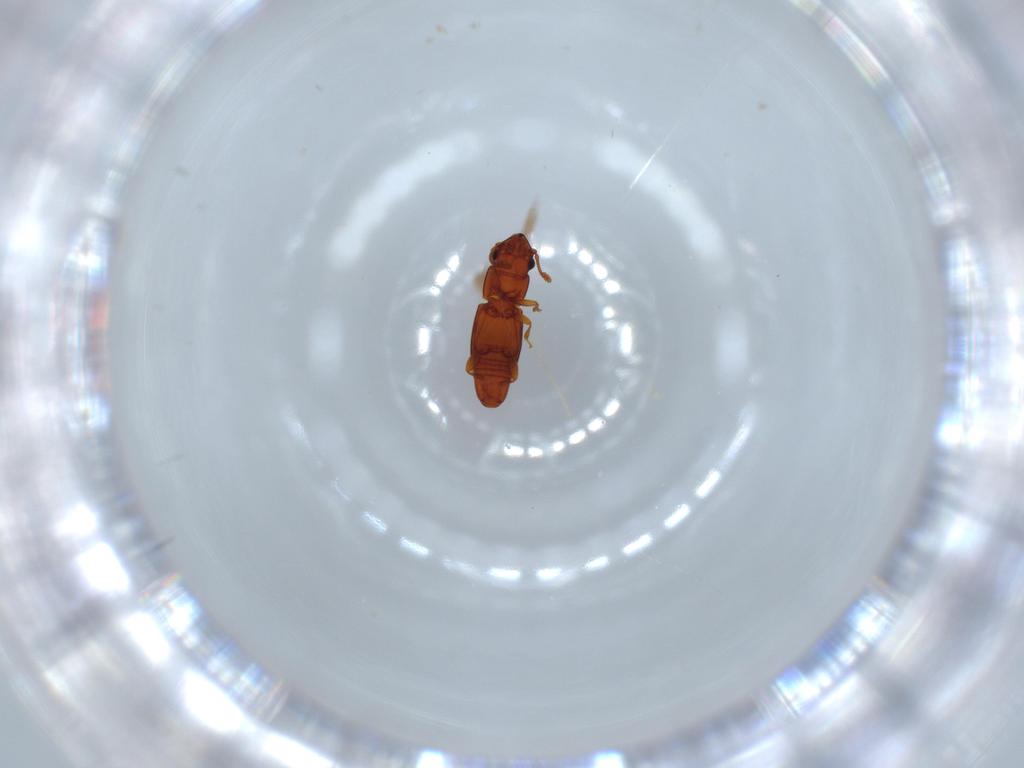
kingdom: Animalia
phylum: Arthropoda
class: Insecta
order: Coleoptera
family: Smicripidae
